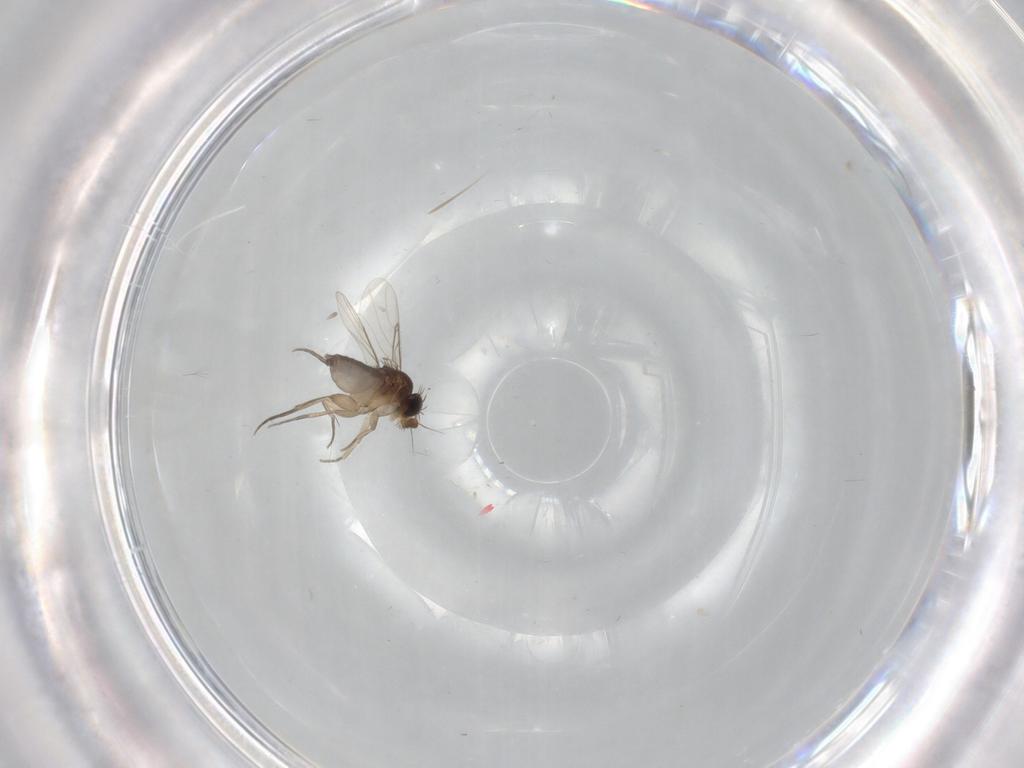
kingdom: Animalia
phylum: Arthropoda
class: Insecta
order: Diptera
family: Phoridae
